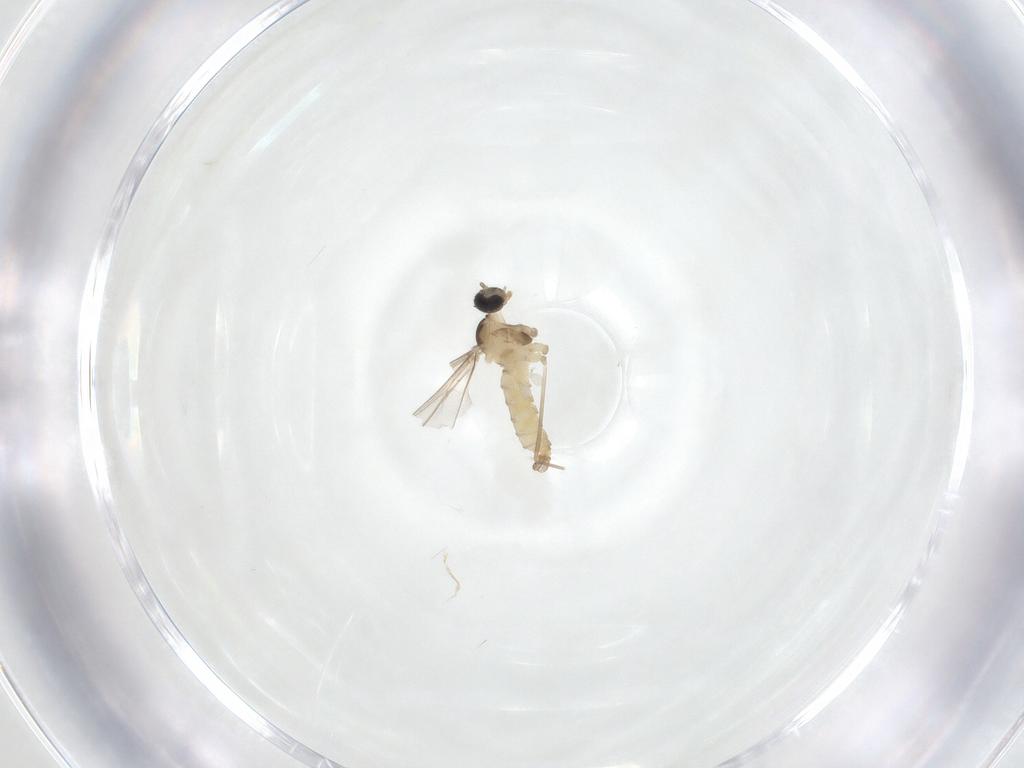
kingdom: Animalia
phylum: Arthropoda
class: Insecta
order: Diptera
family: Cecidomyiidae
